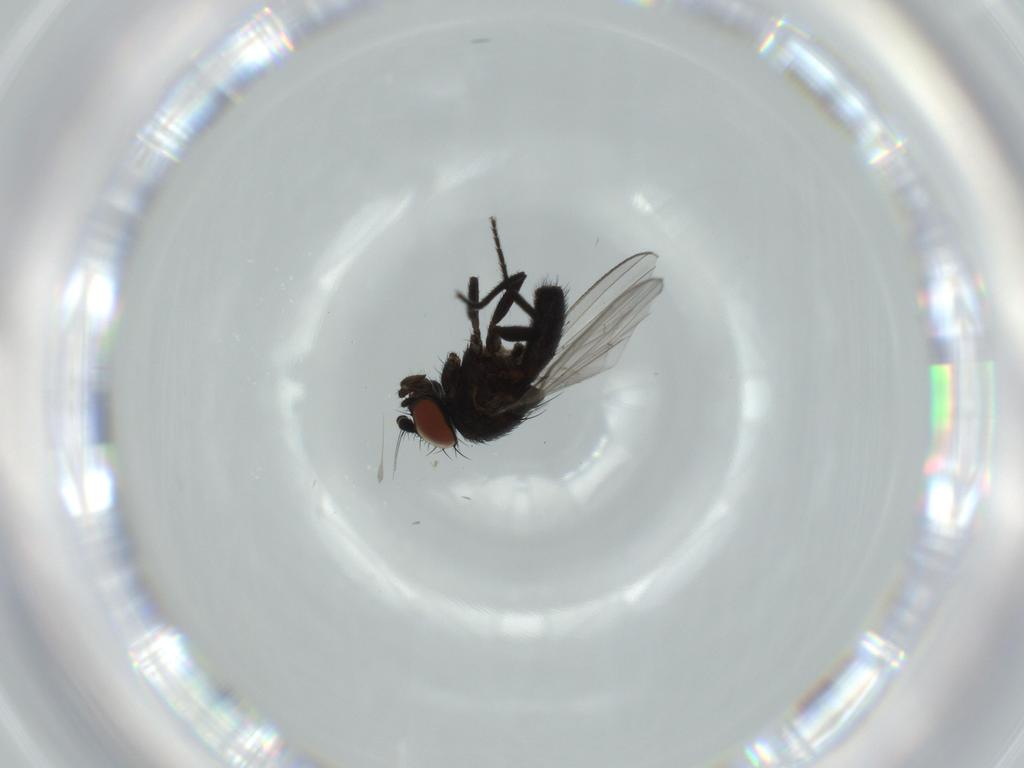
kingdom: Animalia
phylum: Arthropoda
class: Insecta
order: Diptera
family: Milichiidae
